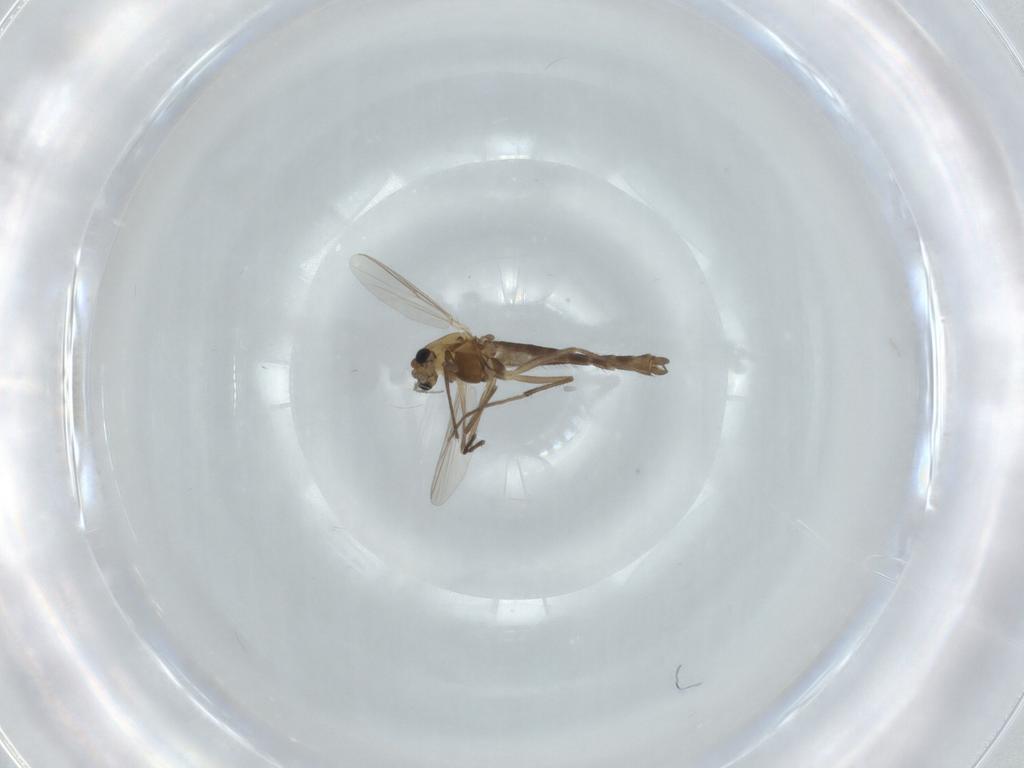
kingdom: Animalia
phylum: Arthropoda
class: Insecta
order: Diptera
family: Chironomidae
